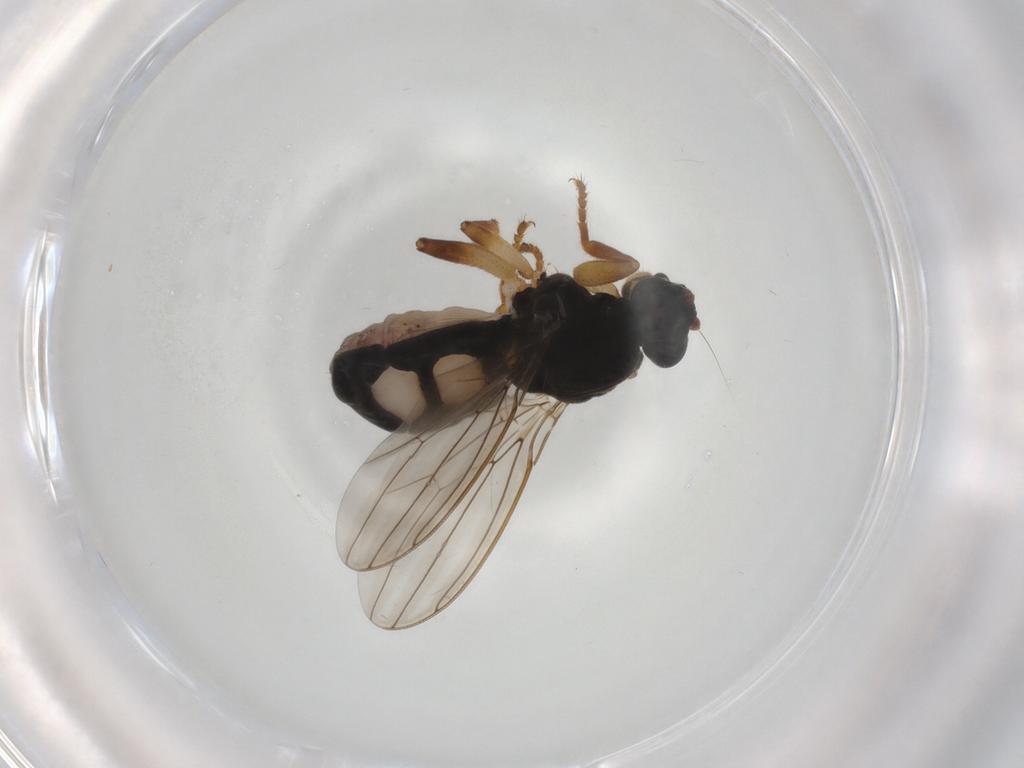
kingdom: Animalia
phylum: Arthropoda
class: Insecta
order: Diptera
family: Sphaeroceridae
